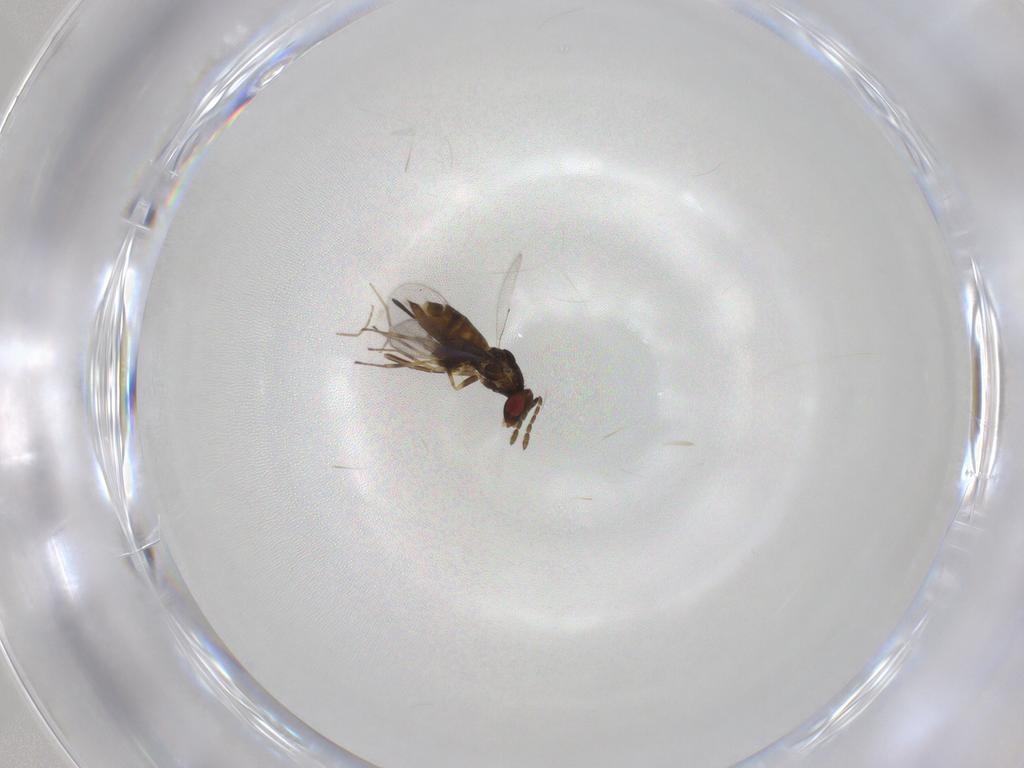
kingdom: Animalia
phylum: Arthropoda
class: Insecta
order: Hymenoptera
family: Eulophidae
